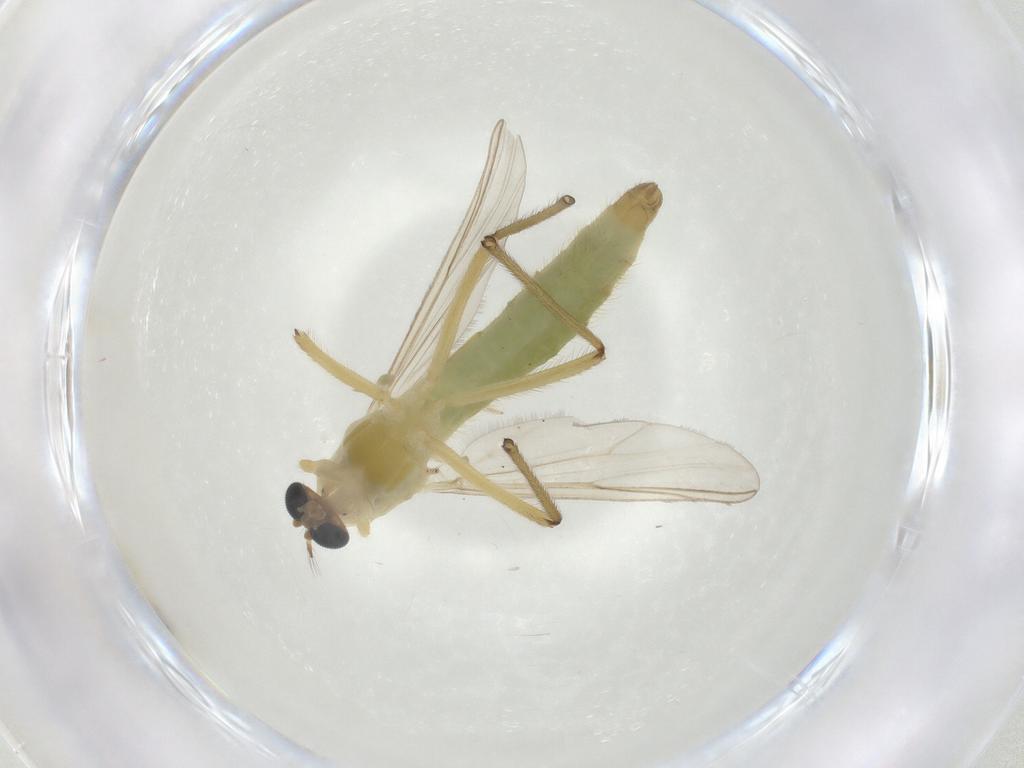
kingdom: Animalia
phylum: Arthropoda
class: Insecta
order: Diptera
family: Chironomidae
